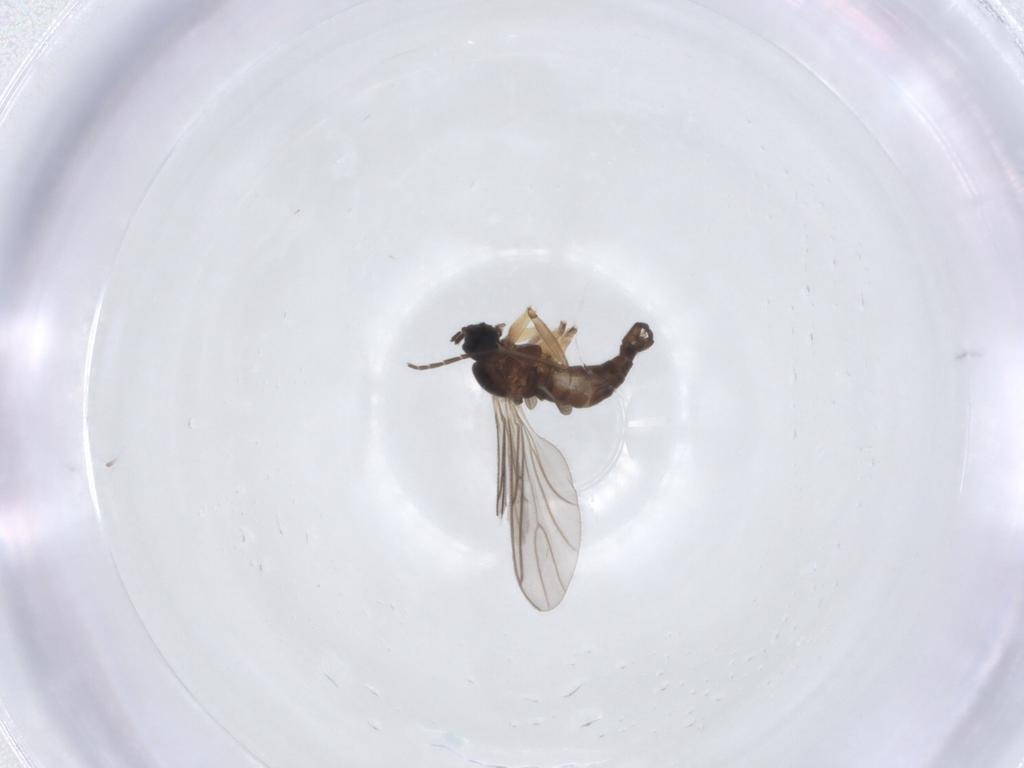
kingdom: Animalia
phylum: Arthropoda
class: Insecta
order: Diptera
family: Sciaridae
